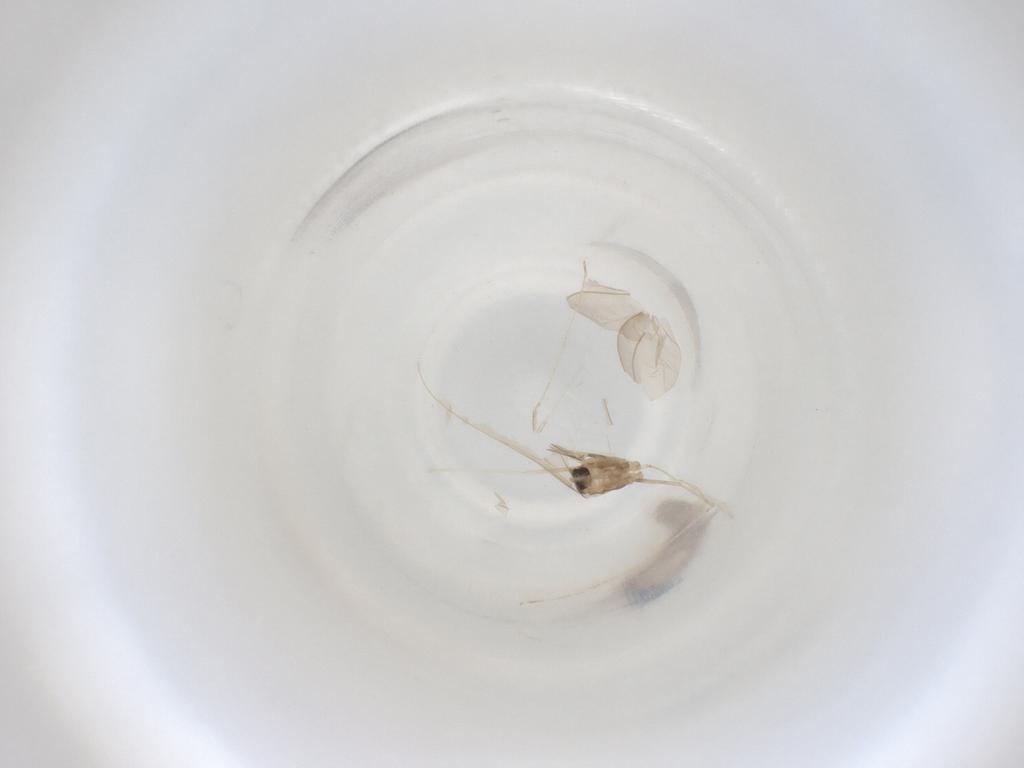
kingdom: Animalia
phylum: Arthropoda
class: Insecta
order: Diptera
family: Cecidomyiidae
